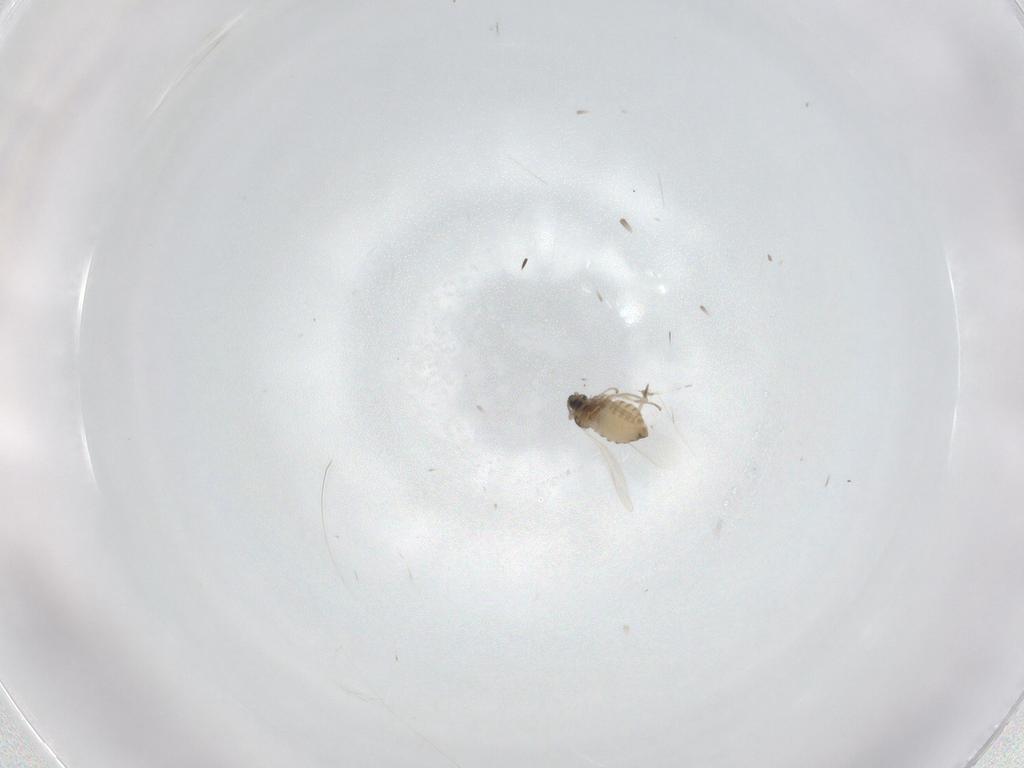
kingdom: Animalia
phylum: Arthropoda
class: Insecta
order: Diptera
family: Cecidomyiidae
